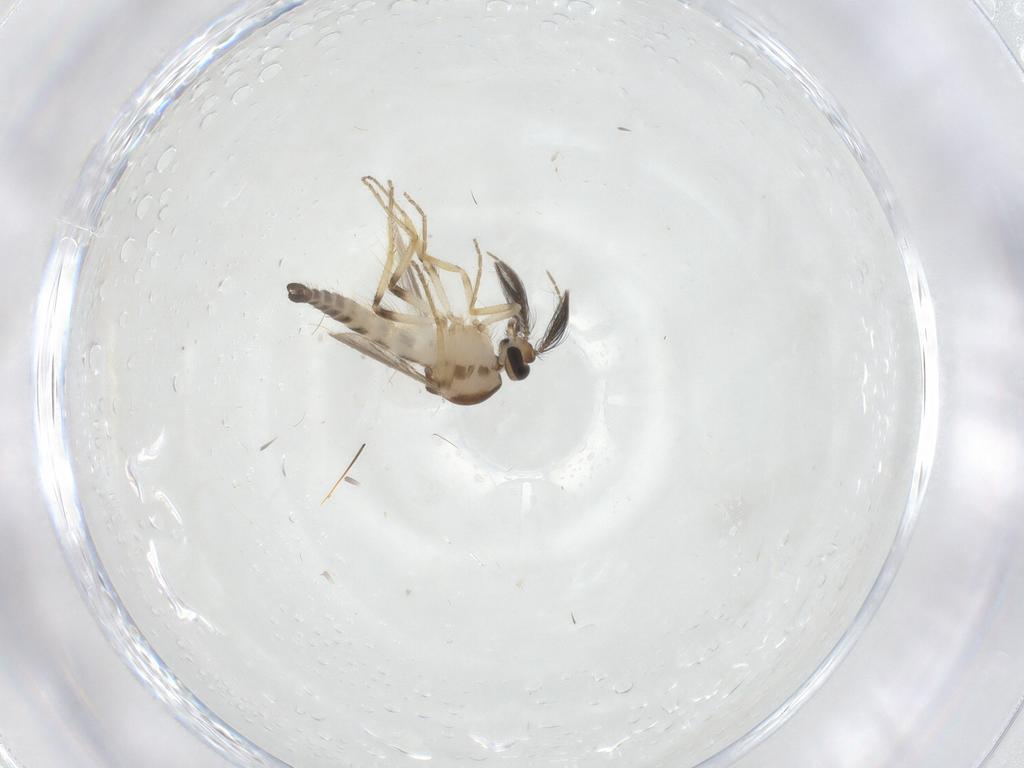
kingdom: Animalia
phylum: Arthropoda
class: Insecta
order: Diptera
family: Ceratopogonidae
